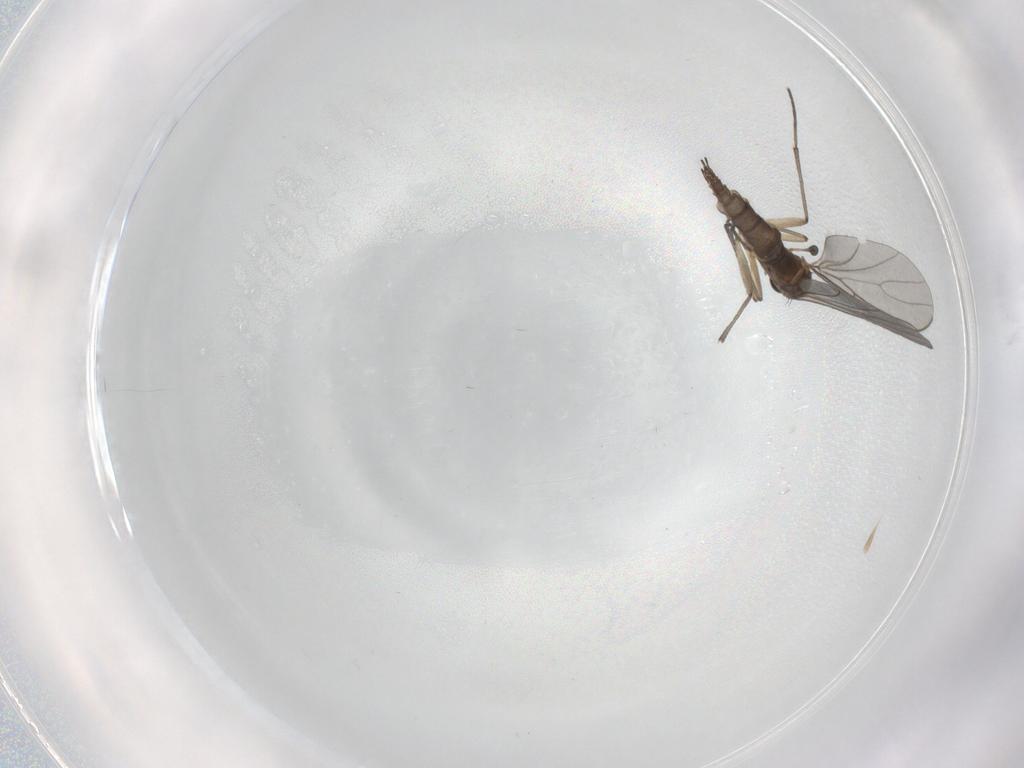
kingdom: Animalia
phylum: Arthropoda
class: Insecta
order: Diptera
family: Sciaridae
